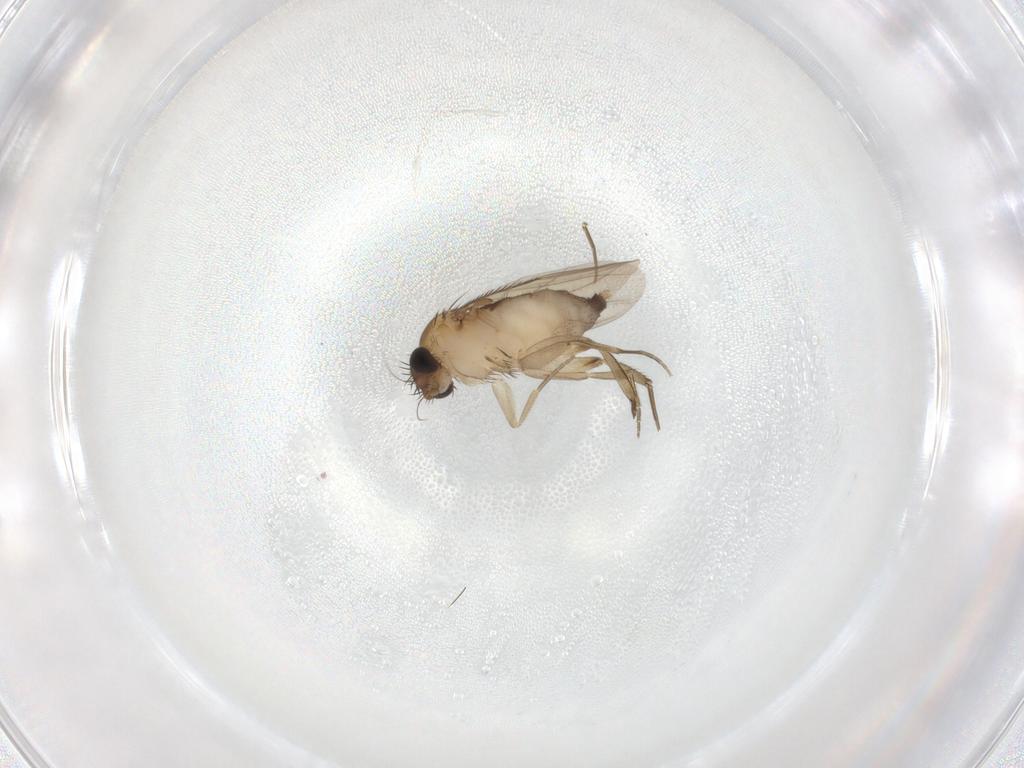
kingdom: Animalia
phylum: Arthropoda
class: Insecta
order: Diptera
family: Phoridae
